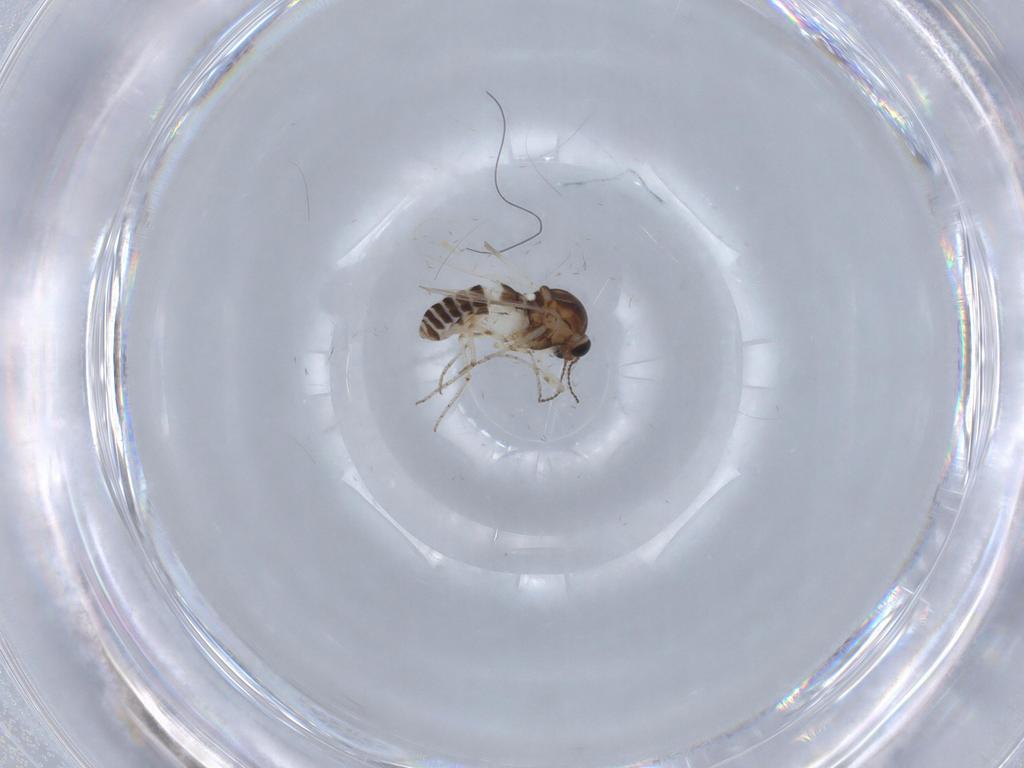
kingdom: Animalia
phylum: Arthropoda
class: Insecta
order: Diptera
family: Ceratopogonidae
